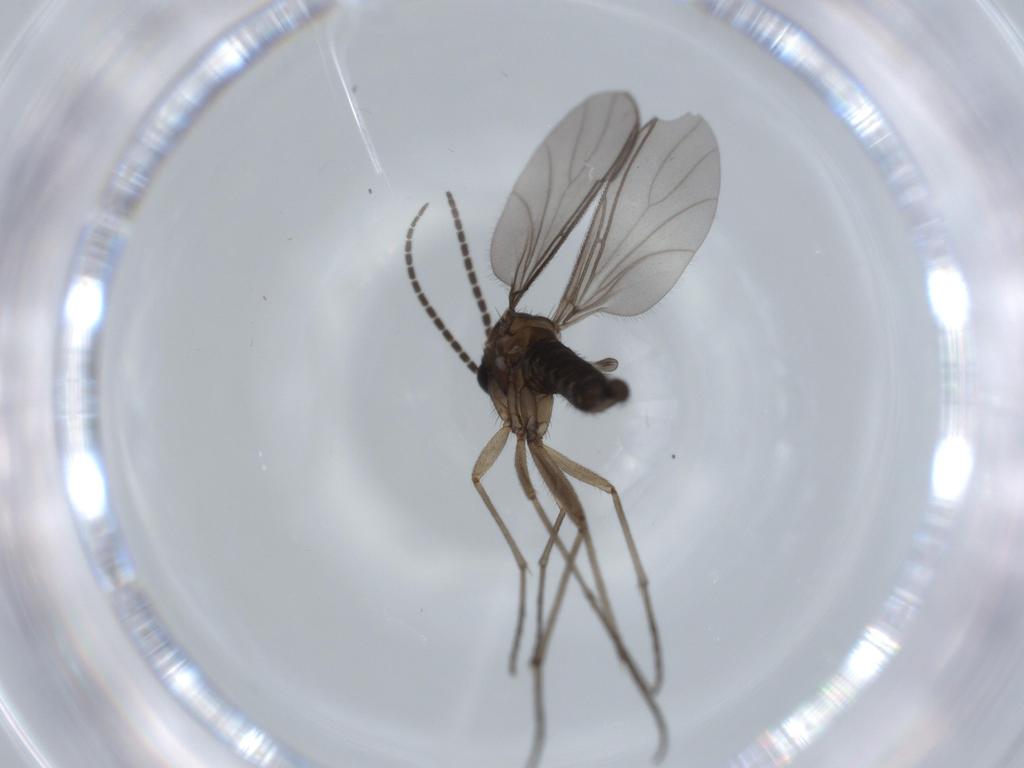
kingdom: Animalia
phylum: Arthropoda
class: Insecta
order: Diptera
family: Sciaridae
